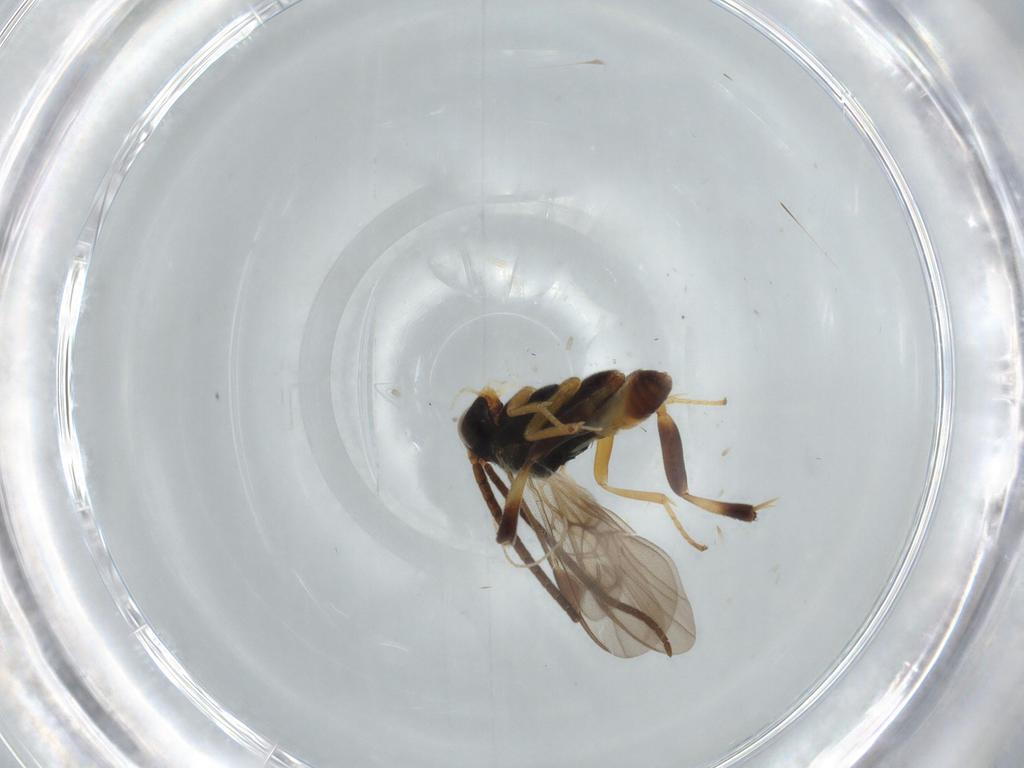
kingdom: Animalia
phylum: Arthropoda
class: Insecta
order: Hymenoptera
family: Braconidae
